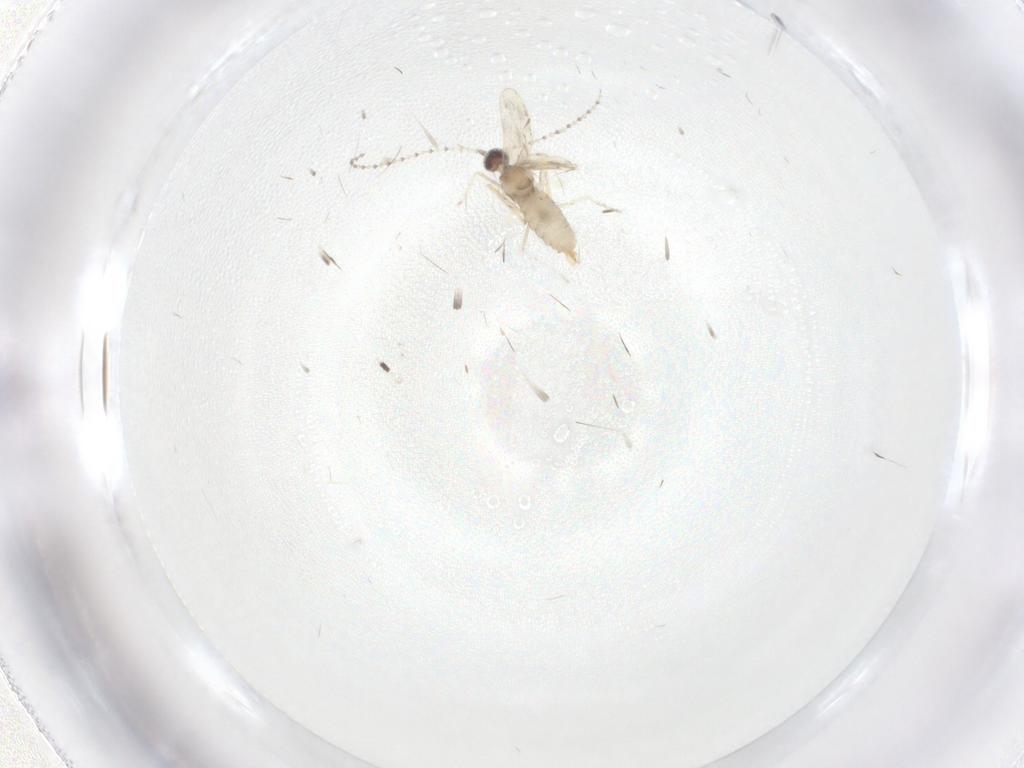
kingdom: Animalia
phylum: Arthropoda
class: Insecta
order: Diptera
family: Cecidomyiidae
